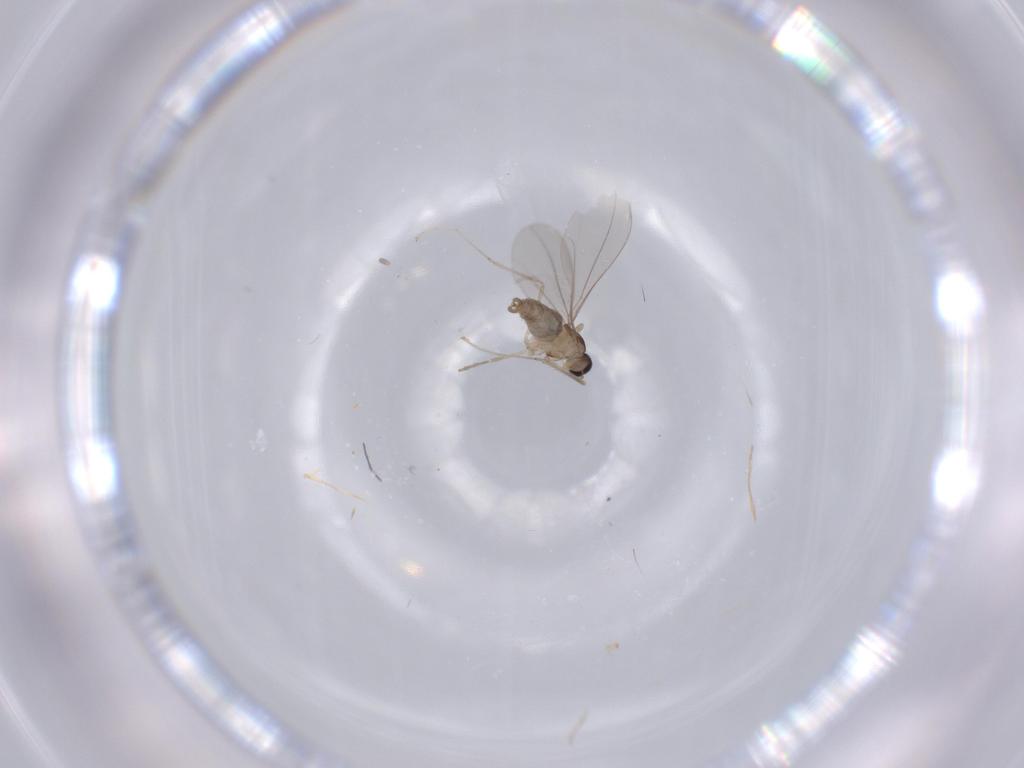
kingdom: Animalia
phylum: Arthropoda
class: Insecta
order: Diptera
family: Cecidomyiidae
